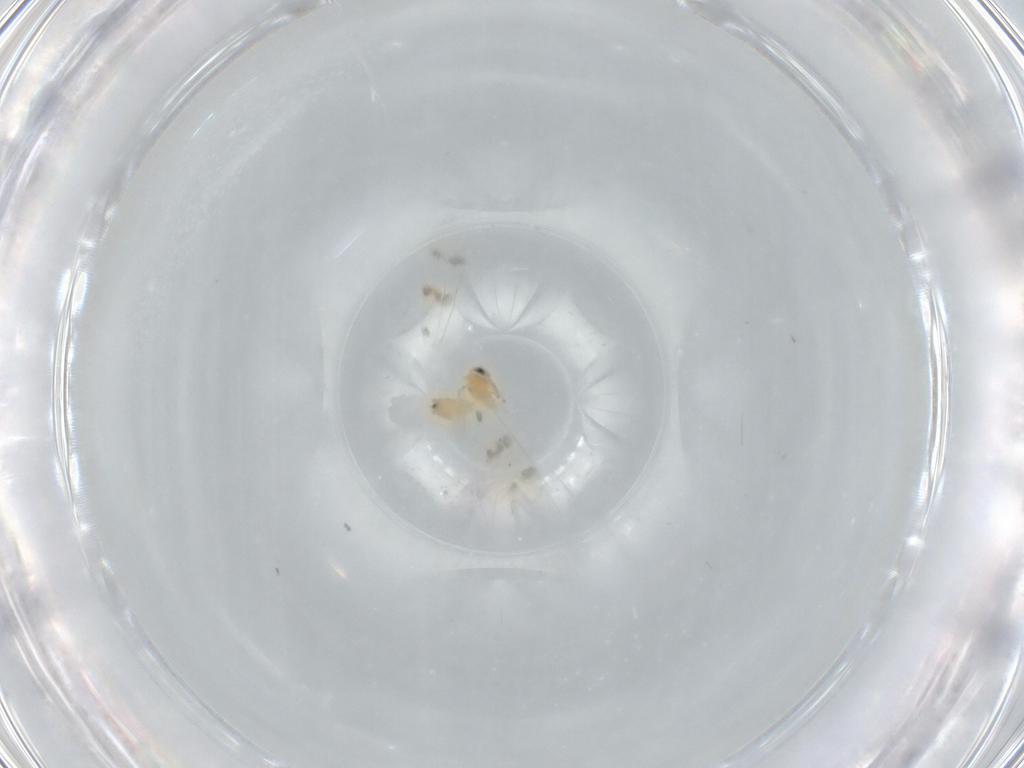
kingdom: Animalia
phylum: Arthropoda
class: Insecta
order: Hemiptera
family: Aleyrodidae
